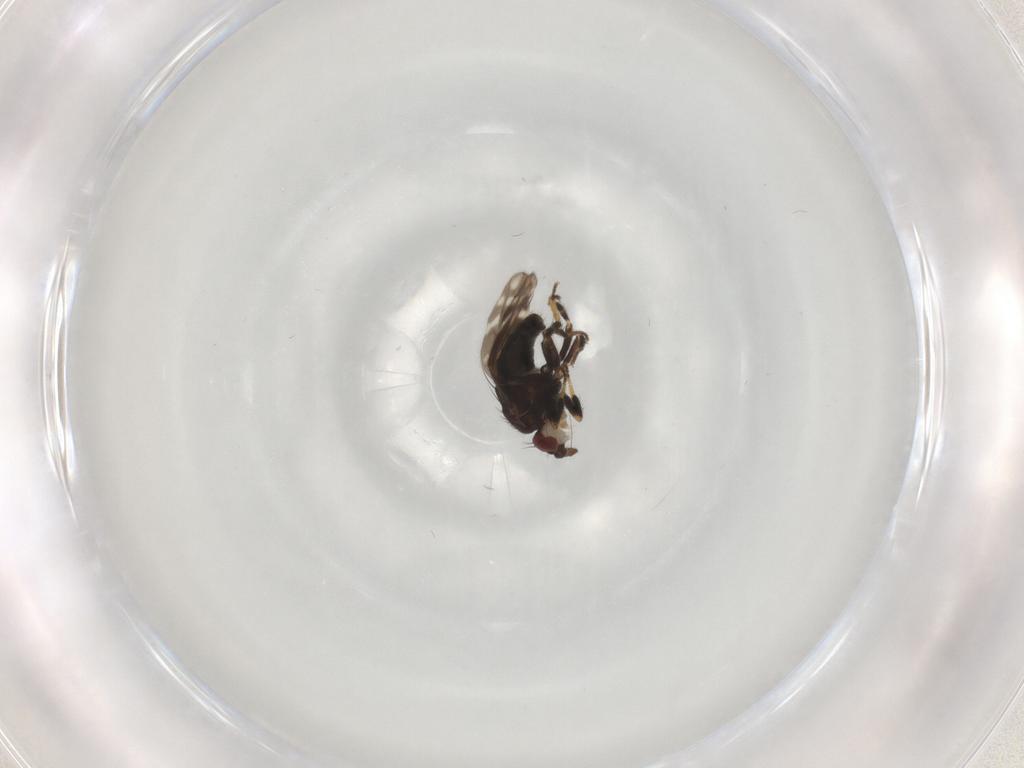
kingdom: Animalia
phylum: Arthropoda
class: Insecta
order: Diptera
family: Sphaeroceridae
